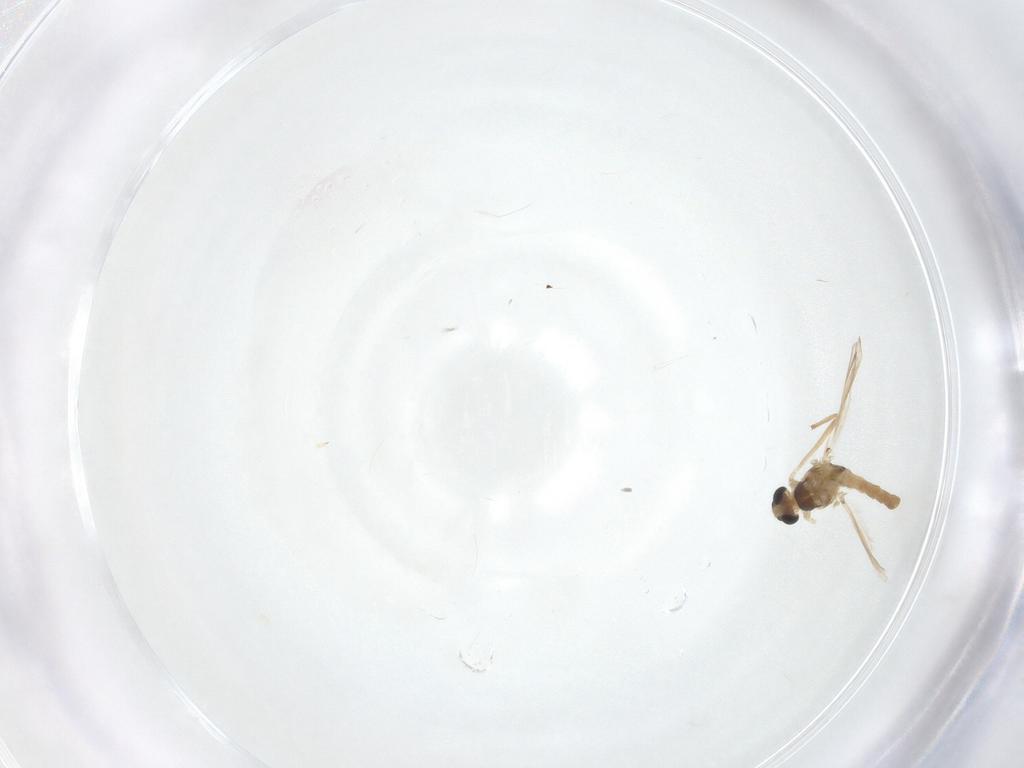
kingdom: Animalia
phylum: Arthropoda
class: Insecta
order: Diptera
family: Chironomidae
